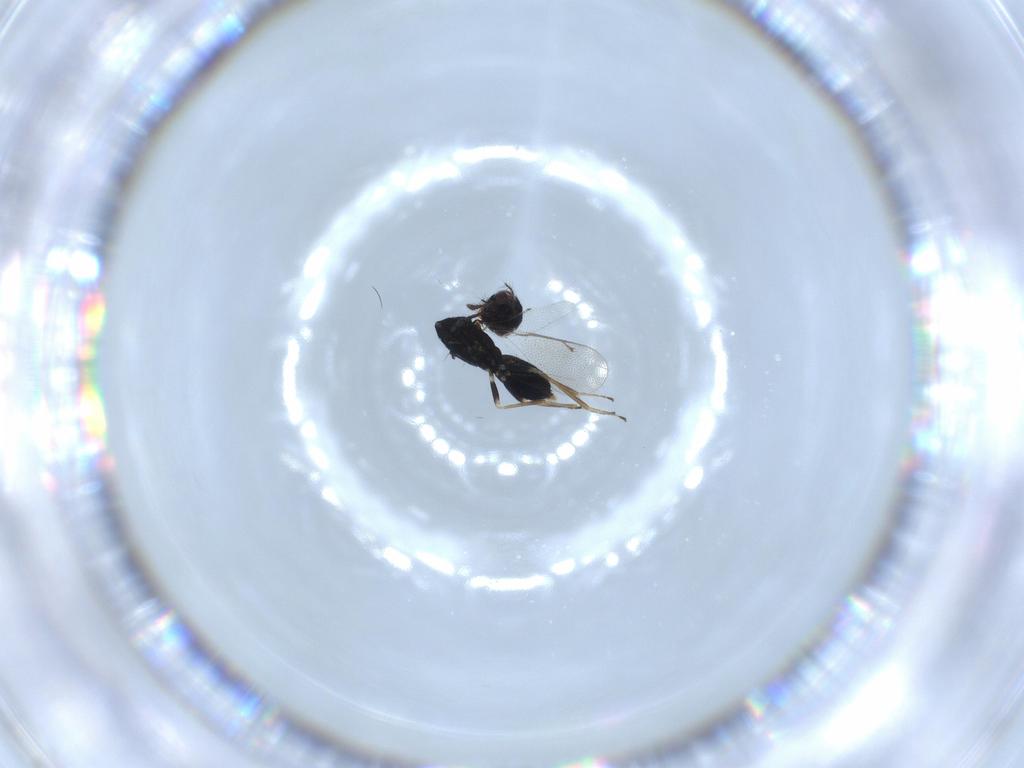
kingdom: Animalia
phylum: Arthropoda
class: Insecta
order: Hymenoptera
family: Eulophidae
